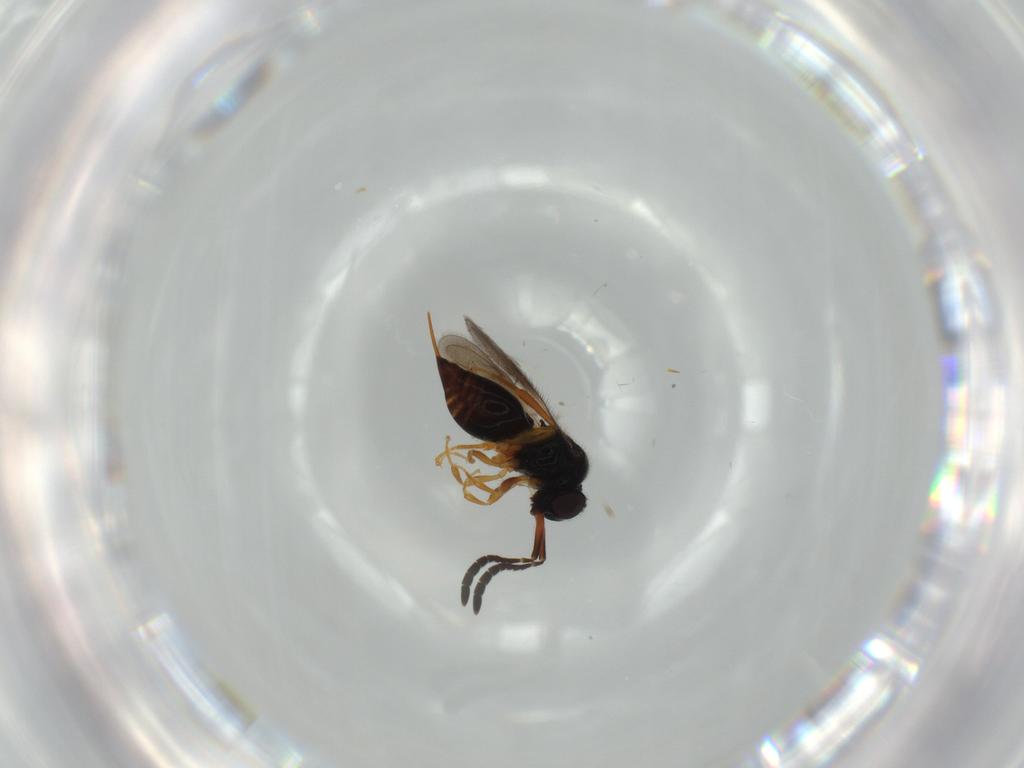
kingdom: Animalia
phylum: Arthropoda
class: Insecta
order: Hymenoptera
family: Ceraphronidae
